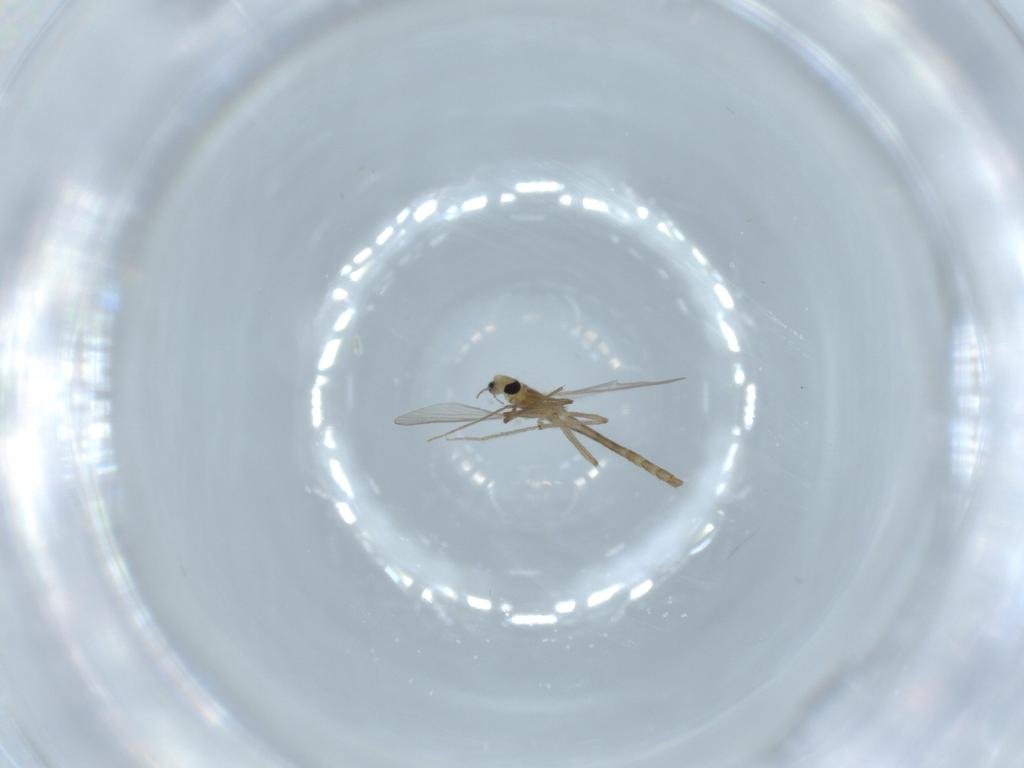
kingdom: Animalia
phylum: Arthropoda
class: Insecta
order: Diptera
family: Chironomidae
